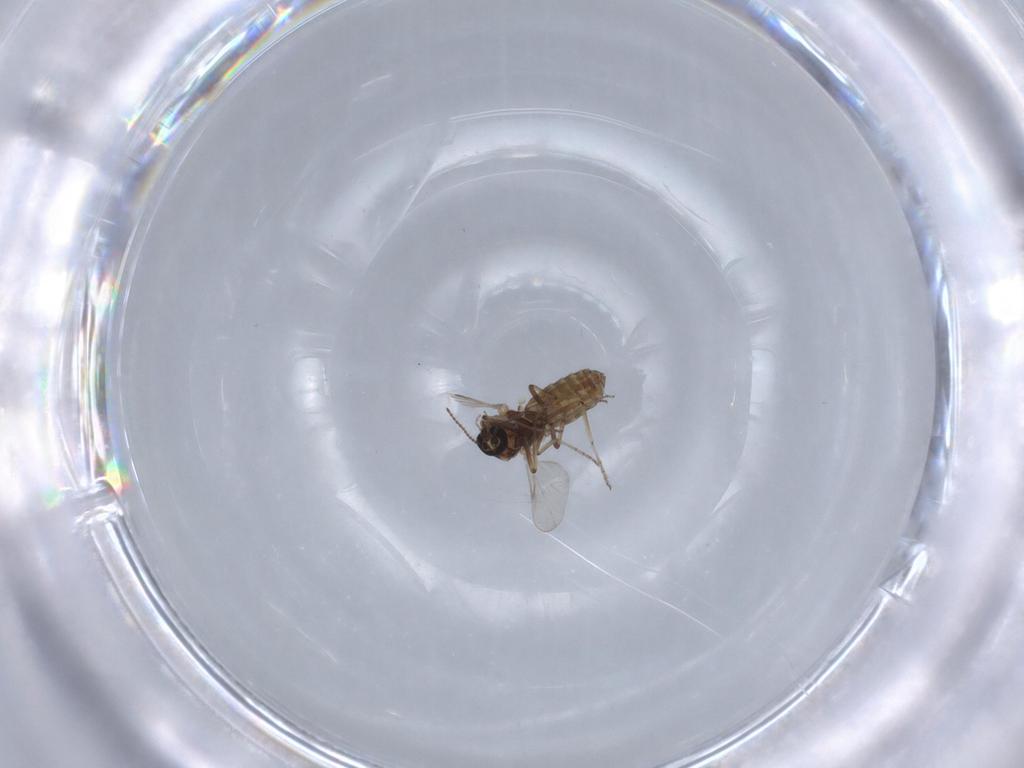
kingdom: Animalia
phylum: Arthropoda
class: Insecta
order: Diptera
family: Ceratopogonidae
